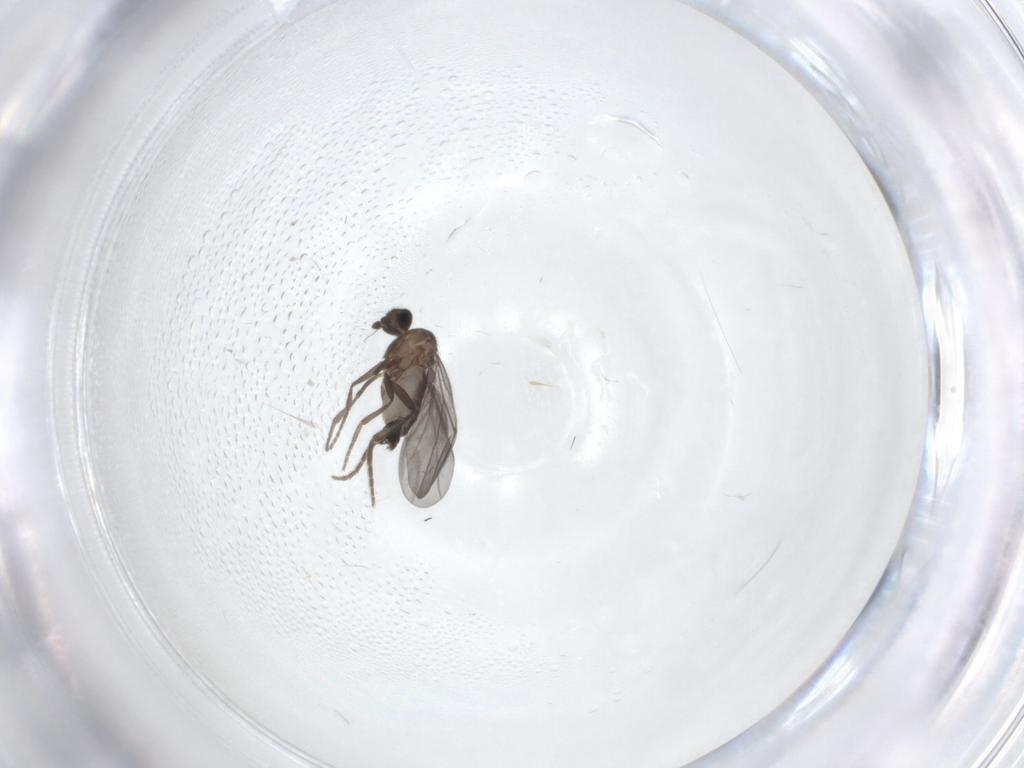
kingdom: Animalia
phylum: Arthropoda
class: Insecta
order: Diptera
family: Phoridae
